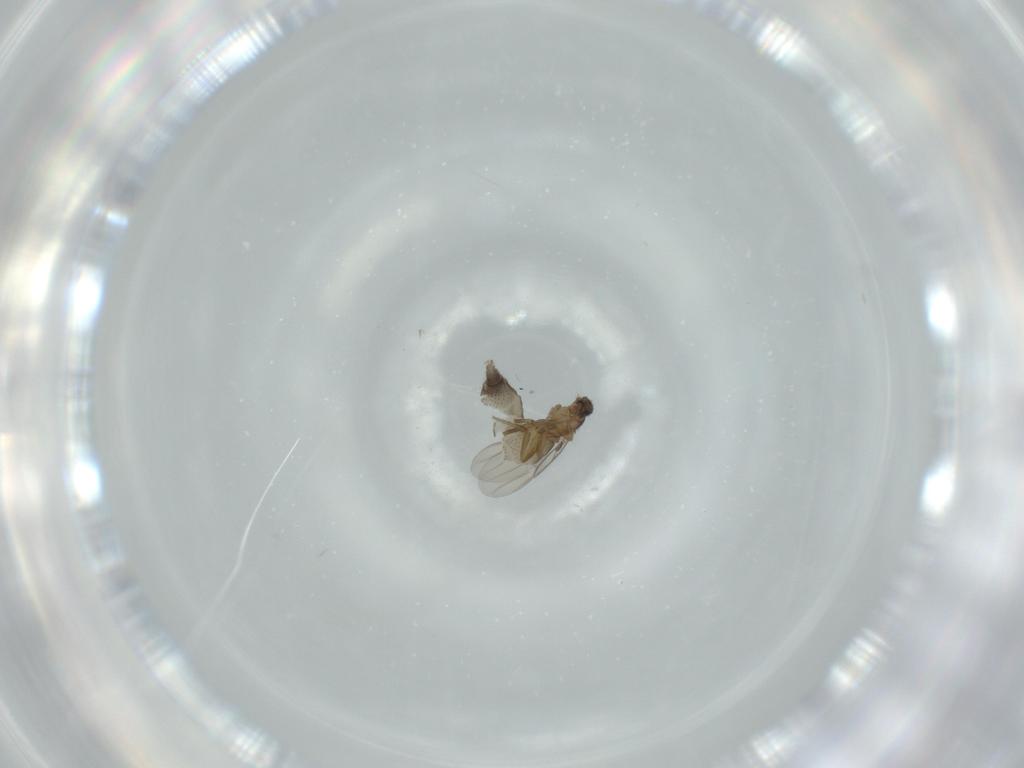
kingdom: Animalia
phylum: Arthropoda
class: Insecta
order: Diptera
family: Phoridae
